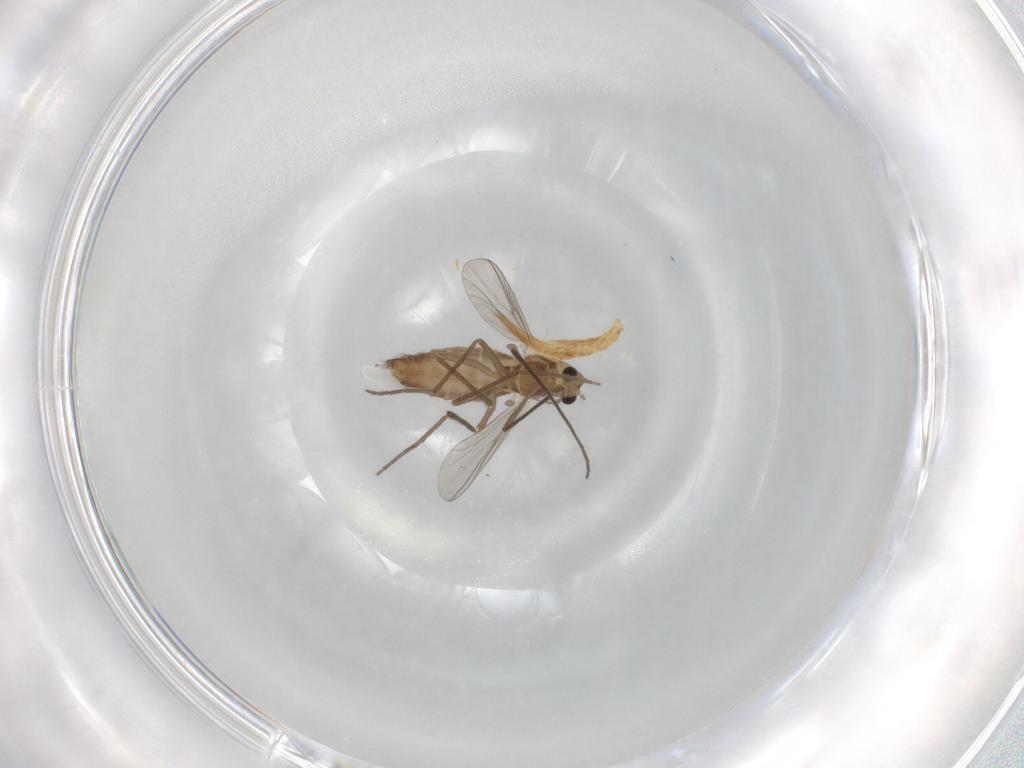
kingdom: Animalia
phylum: Arthropoda
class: Insecta
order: Diptera
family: Chironomidae
